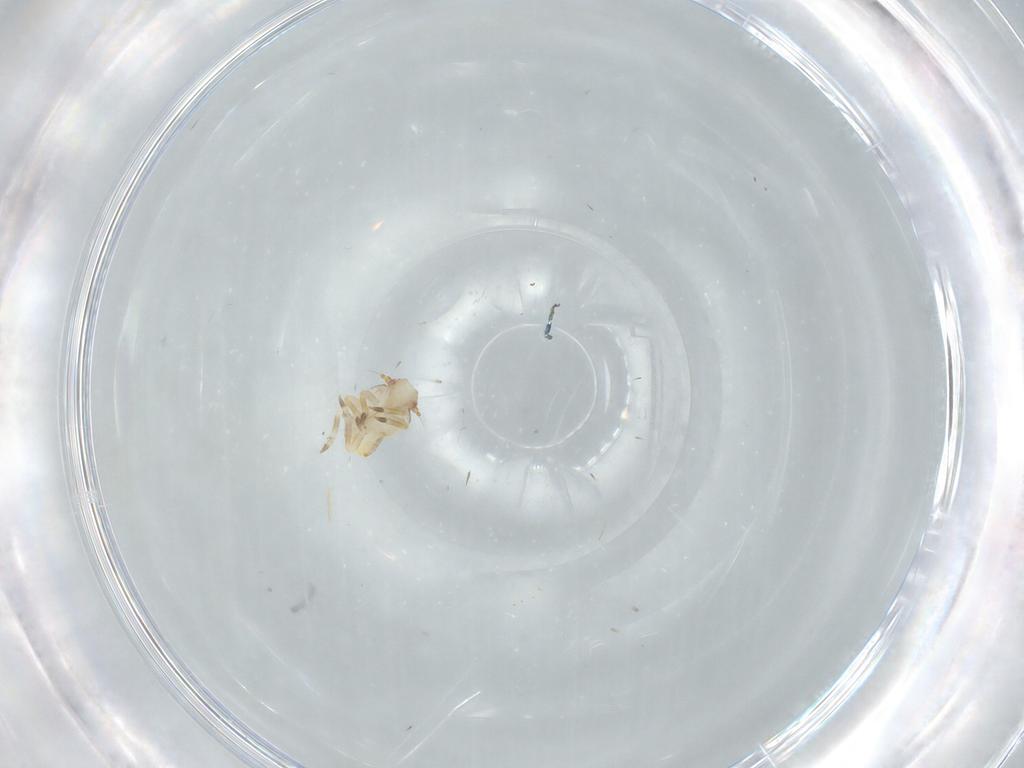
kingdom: Animalia
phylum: Arthropoda
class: Insecta
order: Hemiptera
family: Flatidae
